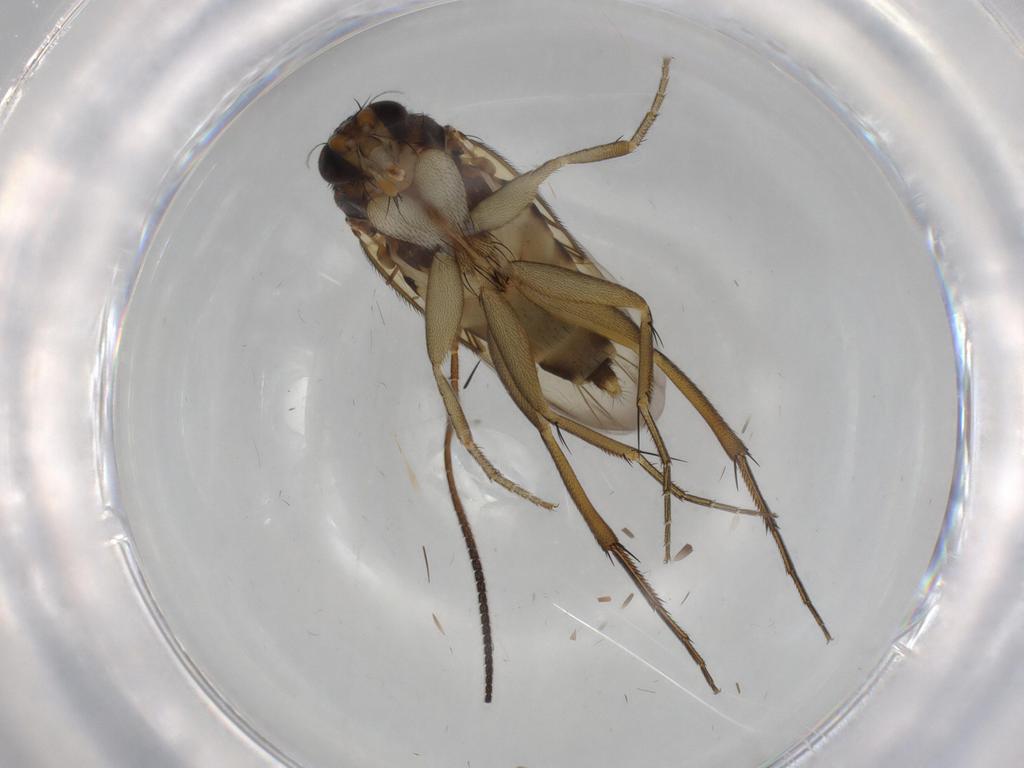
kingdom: Animalia
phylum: Arthropoda
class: Insecta
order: Diptera
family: Phoridae
